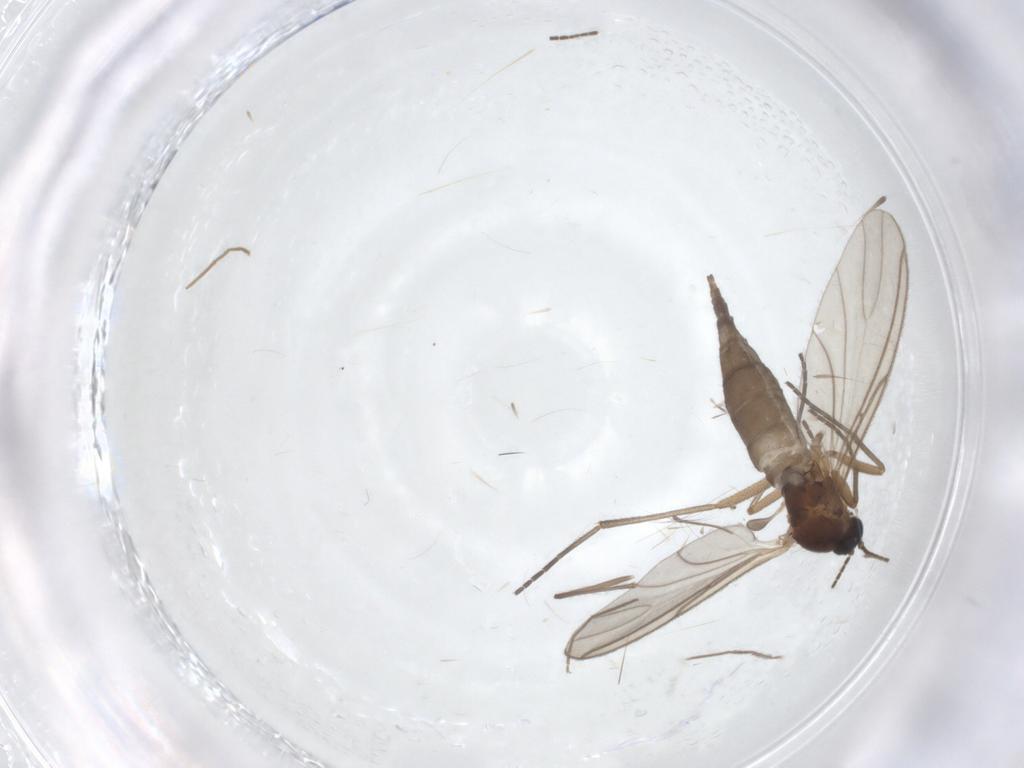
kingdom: Animalia
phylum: Arthropoda
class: Insecta
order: Diptera
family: Sciaridae
